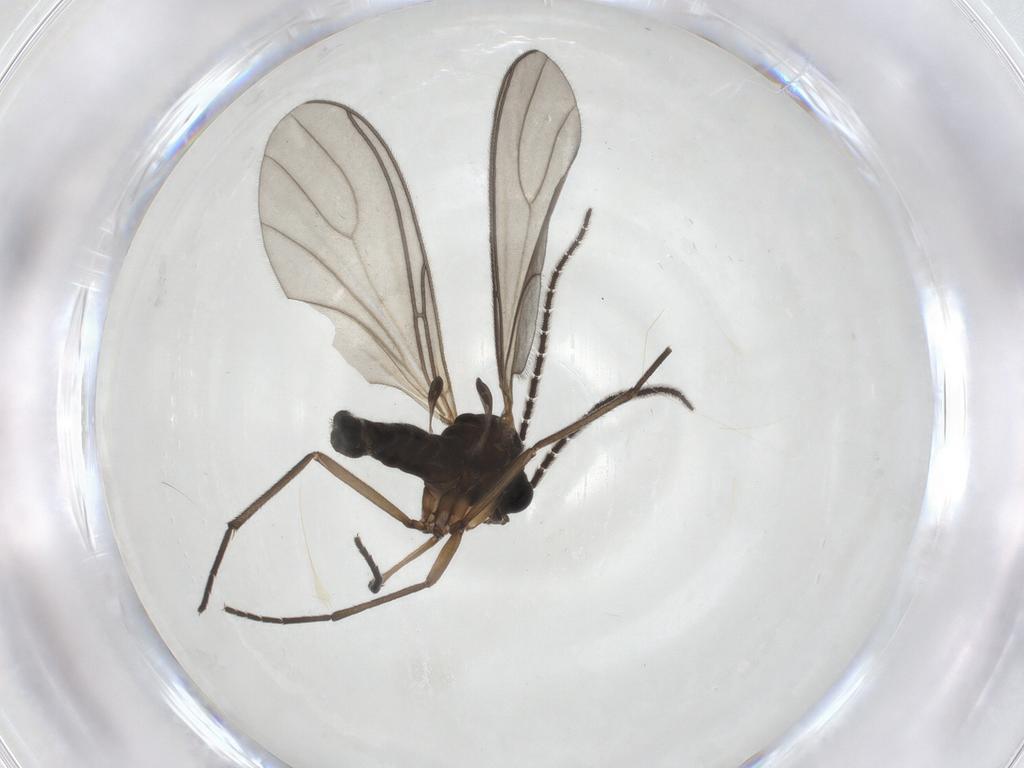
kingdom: Animalia
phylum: Arthropoda
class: Insecta
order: Diptera
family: Sciaridae
